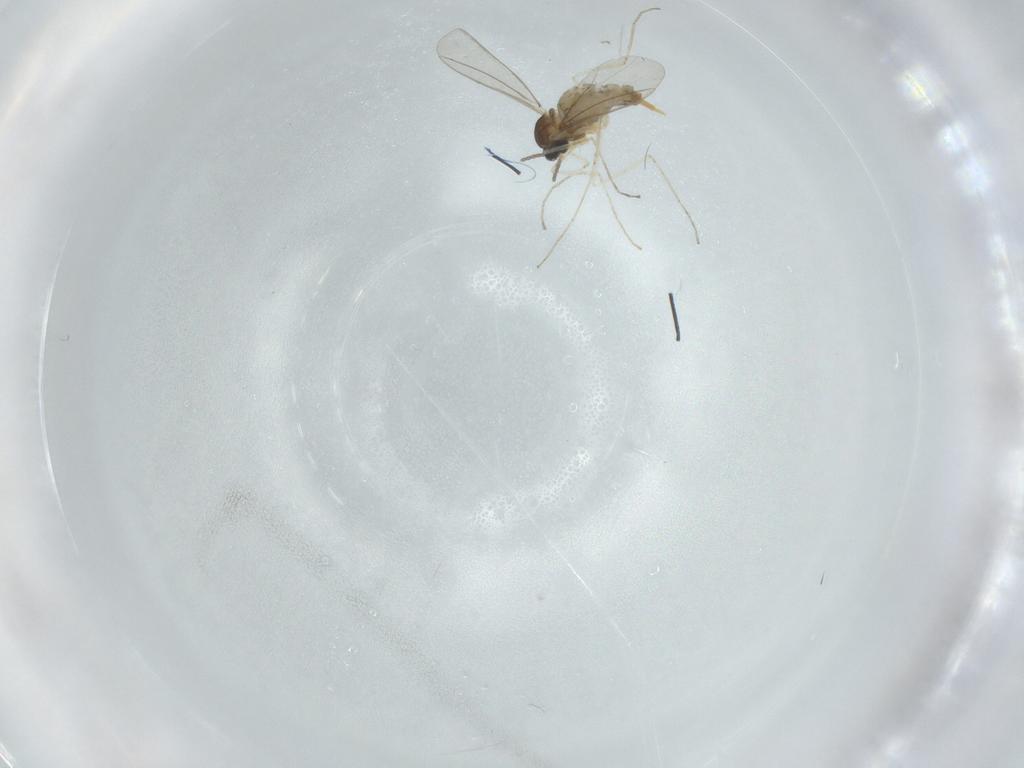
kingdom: Animalia
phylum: Arthropoda
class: Insecta
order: Diptera
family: Cecidomyiidae
